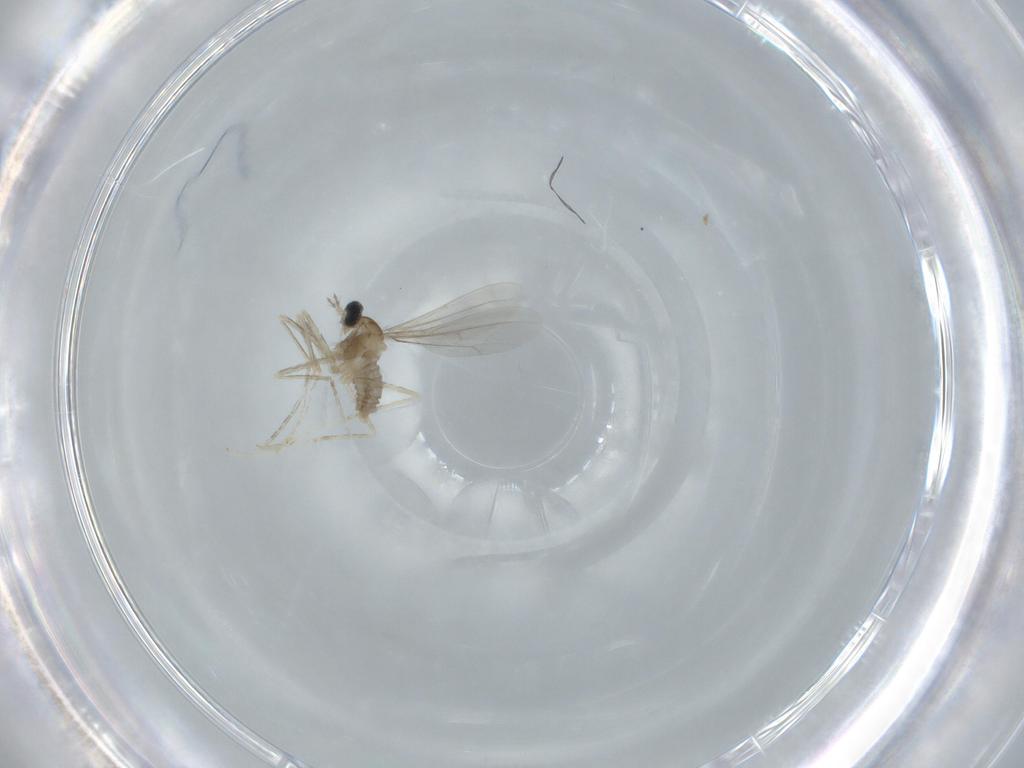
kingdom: Animalia
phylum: Arthropoda
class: Insecta
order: Diptera
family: Cecidomyiidae
